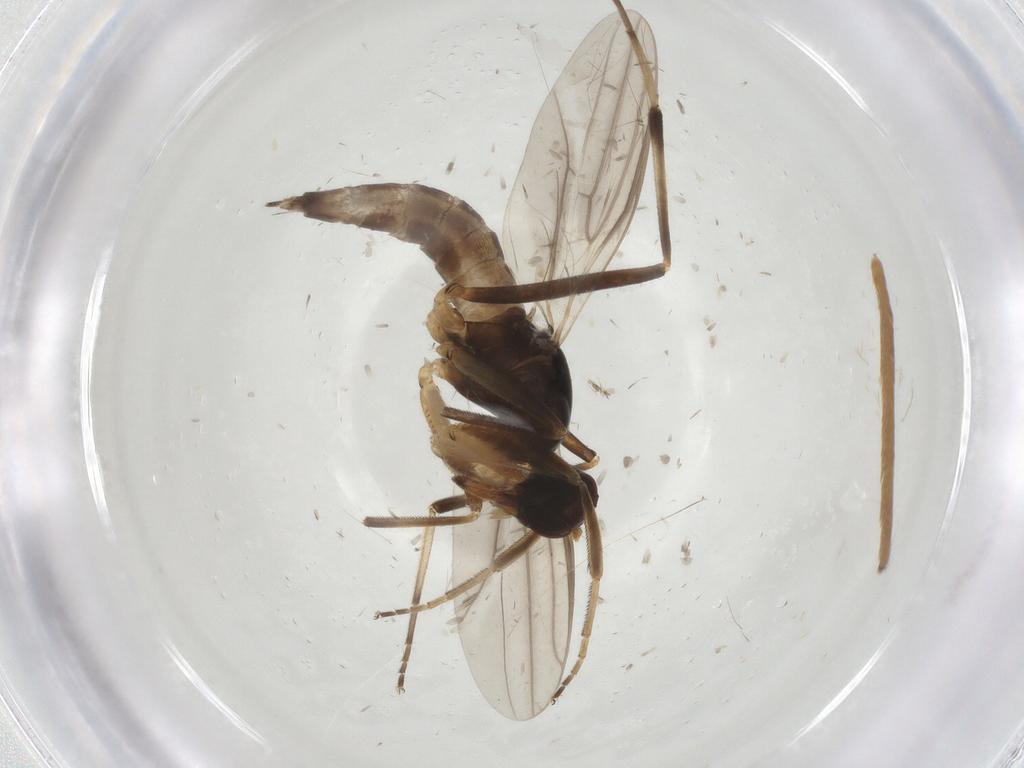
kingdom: Animalia
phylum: Arthropoda
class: Insecta
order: Diptera
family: Hybotidae
